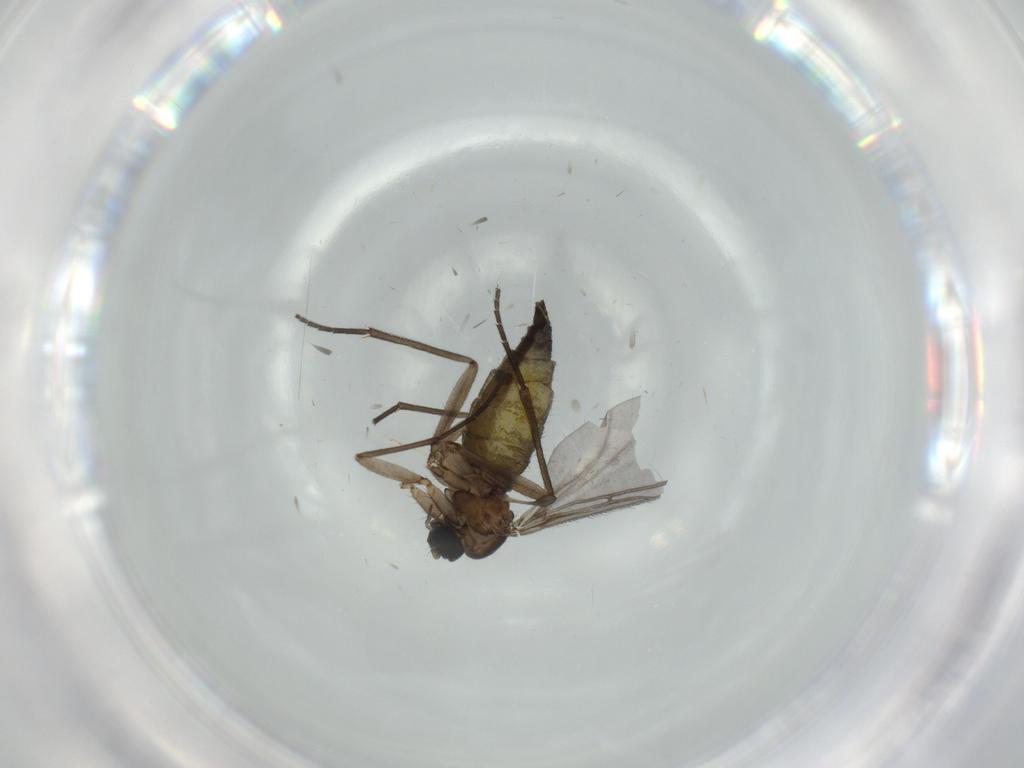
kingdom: Animalia
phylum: Arthropoda
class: Insecta
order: Diptera
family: Sciaridae
